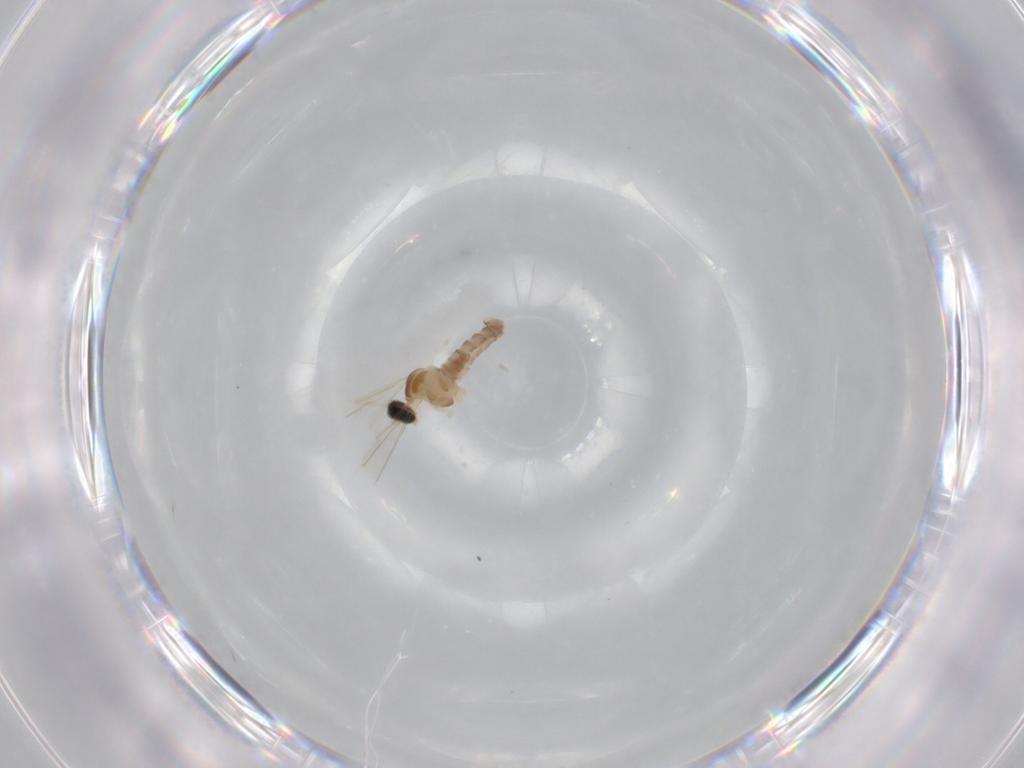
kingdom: Animalia
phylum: Arthropoda
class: Insecta
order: Diptera
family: Cecidomyiidae
